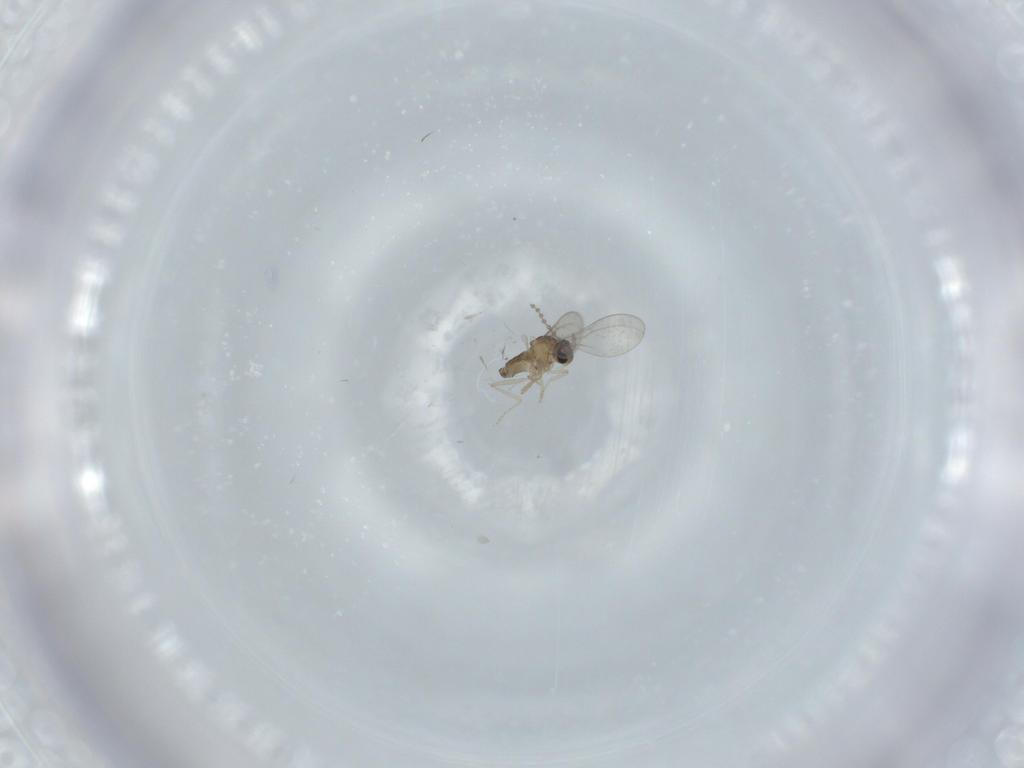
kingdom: Animalia
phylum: Arthropoda
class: Insecta
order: Diptera
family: Cecidomyiidae
